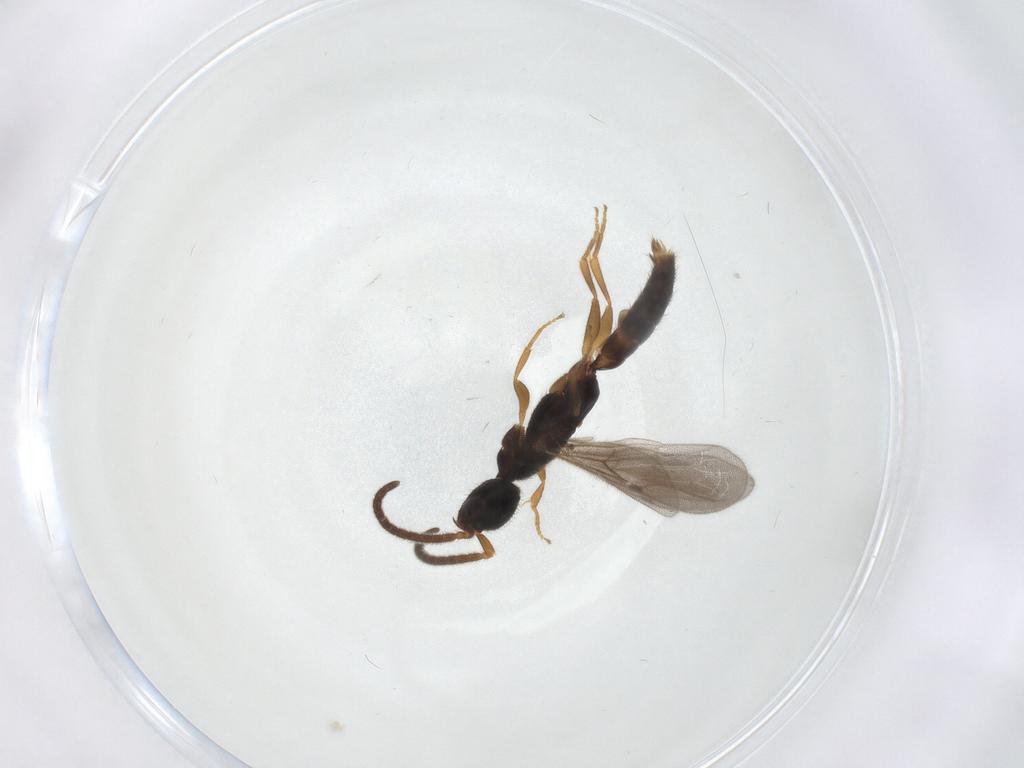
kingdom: Animalia
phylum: Arthropoda
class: Insecta
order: Hymenoptera
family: Bethylidae
